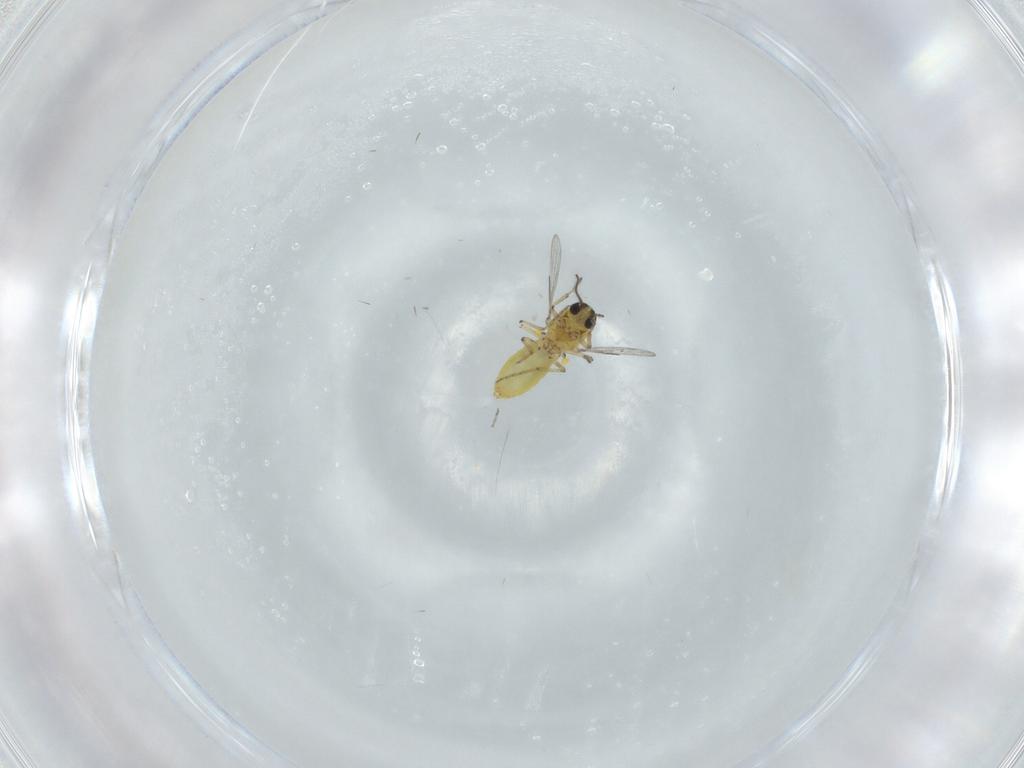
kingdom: Animalia
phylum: Arthropoda
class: Insecta
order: Diptera
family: Ceratopogonidae
